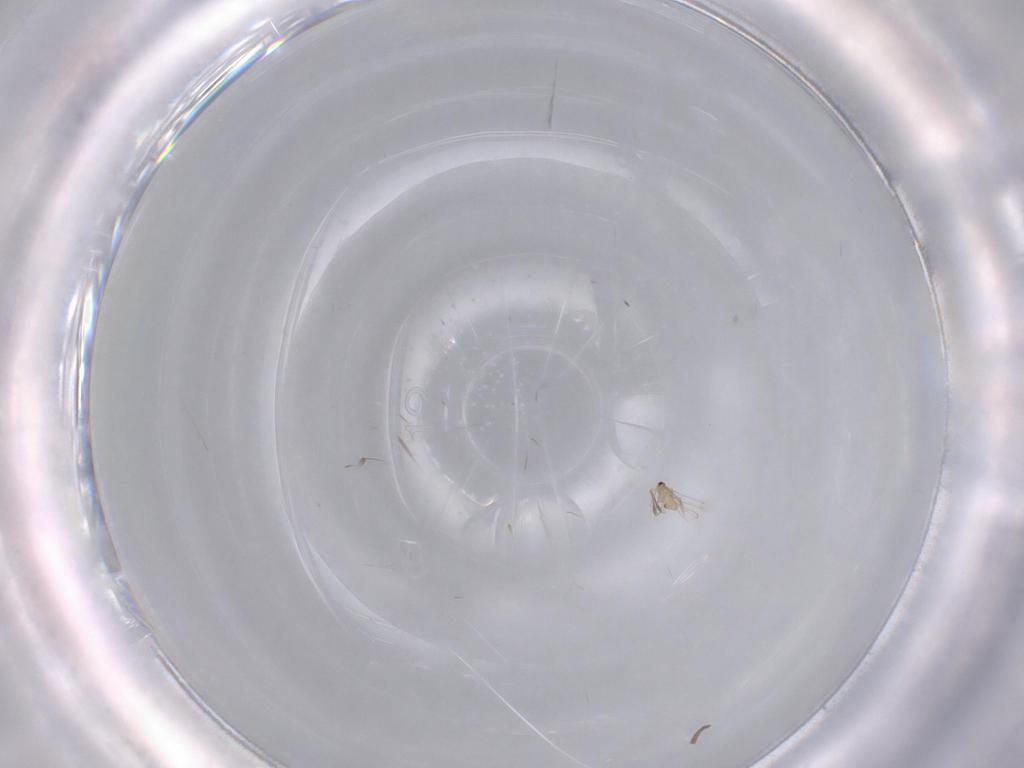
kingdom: Animalia
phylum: Arthropoda
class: Insecta
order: Blattodea
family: Ectobiidae
